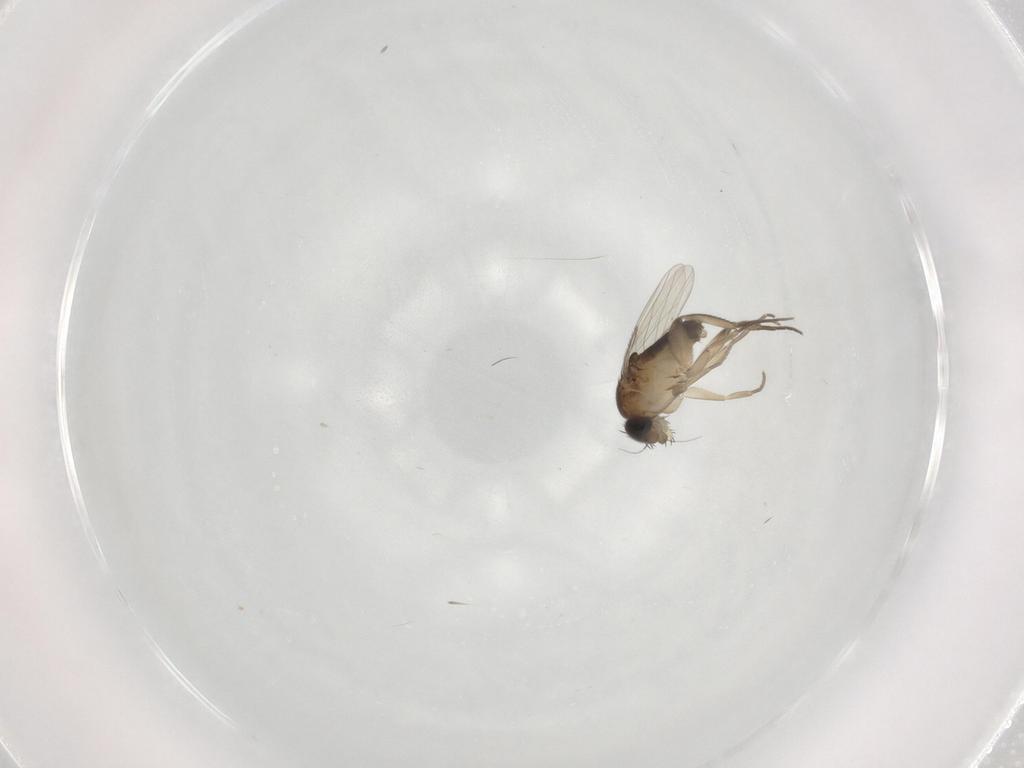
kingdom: Animalia
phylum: Arthropoda
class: Insecta
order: Diptera
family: Phoridae
